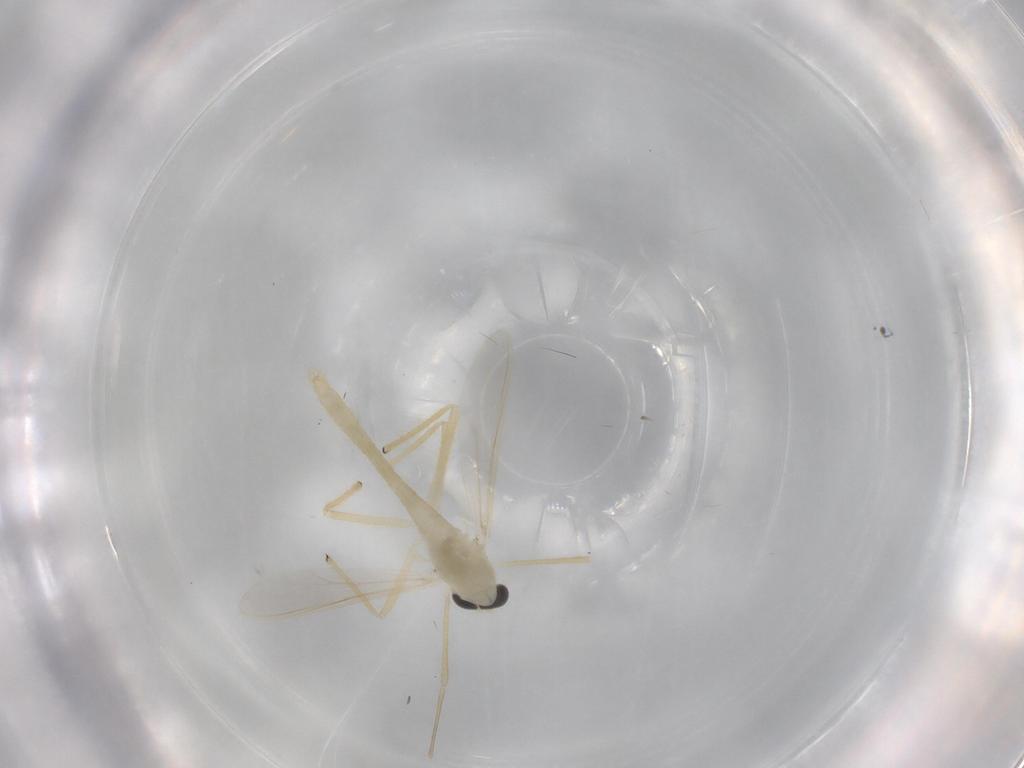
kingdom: Animalia
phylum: Arthropoda
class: Insecta
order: Diptera
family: Chironomidae
